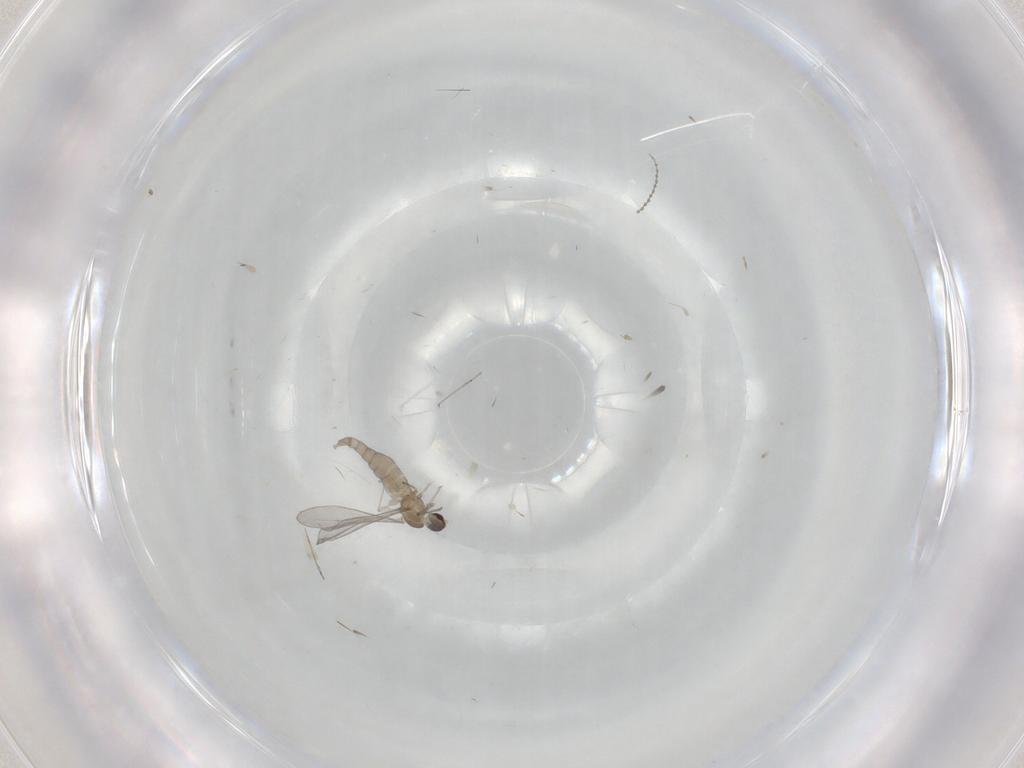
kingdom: Animalia
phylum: Arthropoda
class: Insecta
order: Diptera
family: Cecidomyiidae
